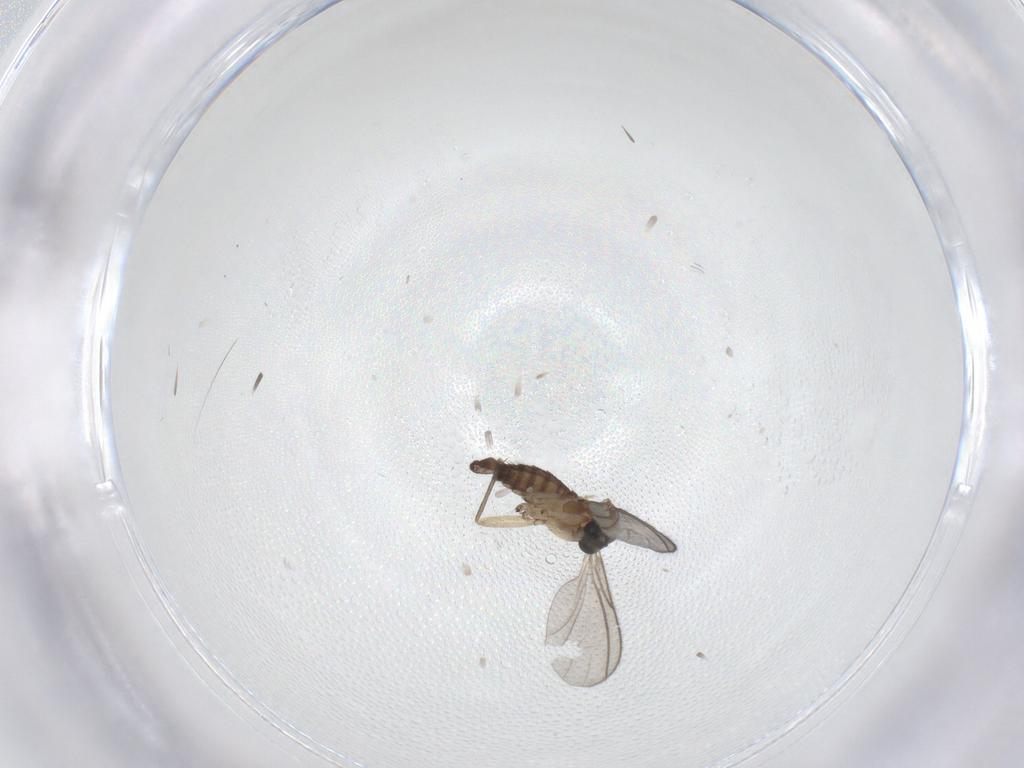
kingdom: Animalia
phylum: Arthropoda
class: Insecta
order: Diptera
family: Sciaridae
